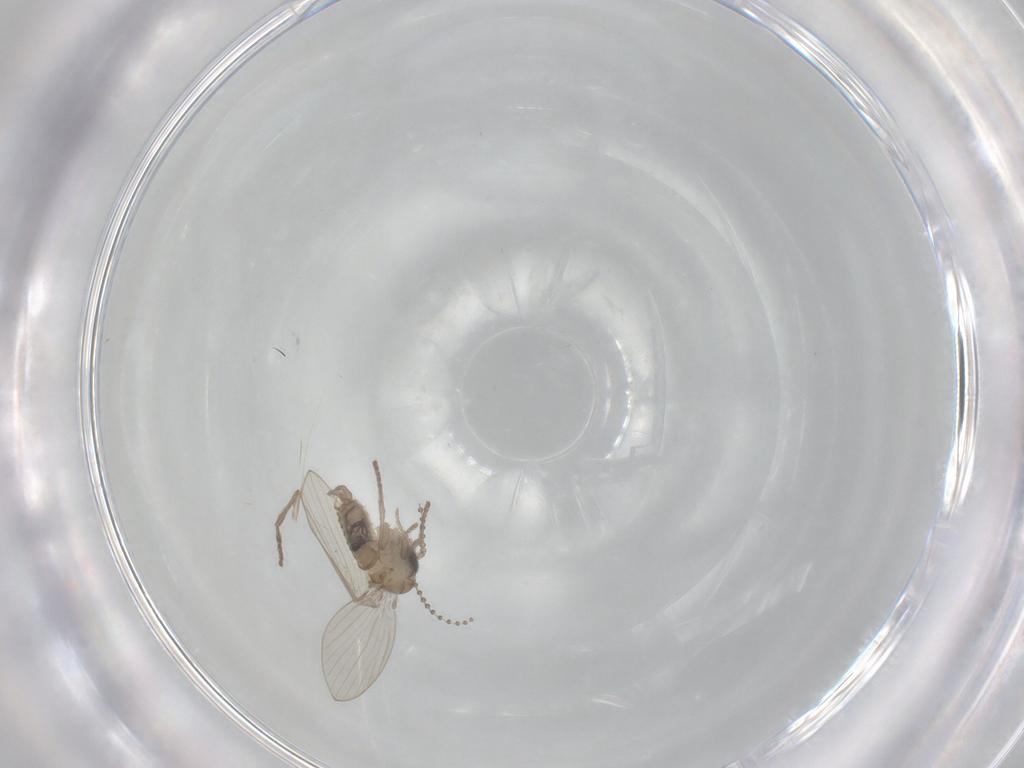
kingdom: Animalia
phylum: Arthropoda
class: Insecta
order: Diptera
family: Psychodidae
